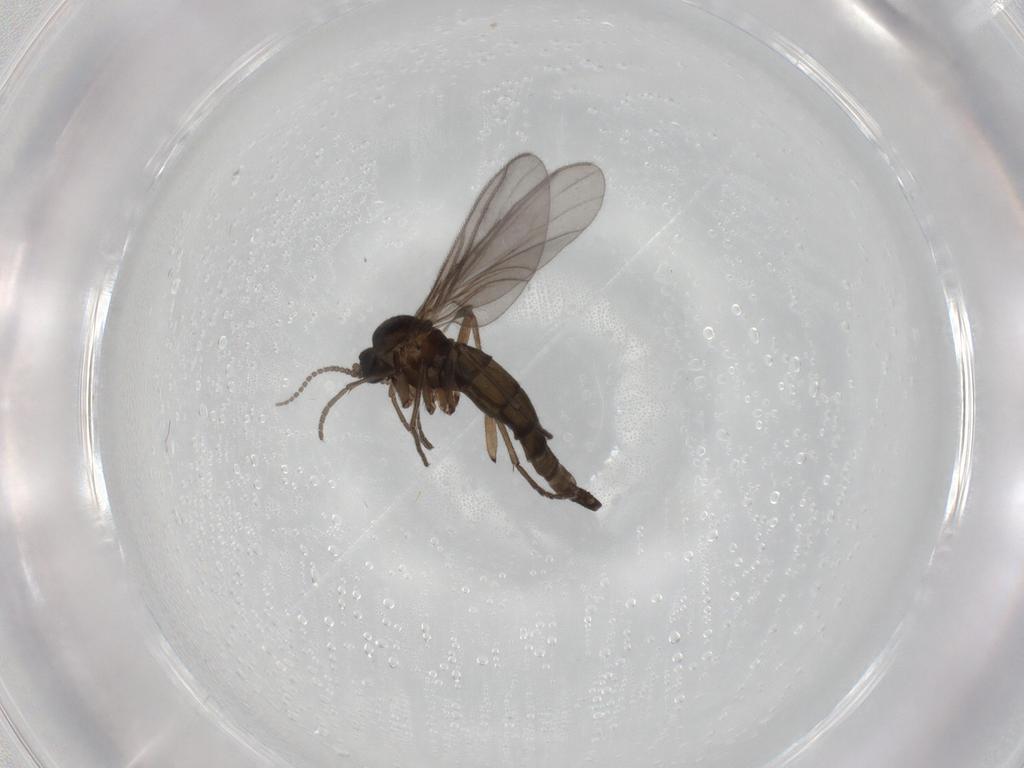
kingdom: Animalia
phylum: Arthropoda
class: Insecta
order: Diptera
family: Sciaridae
